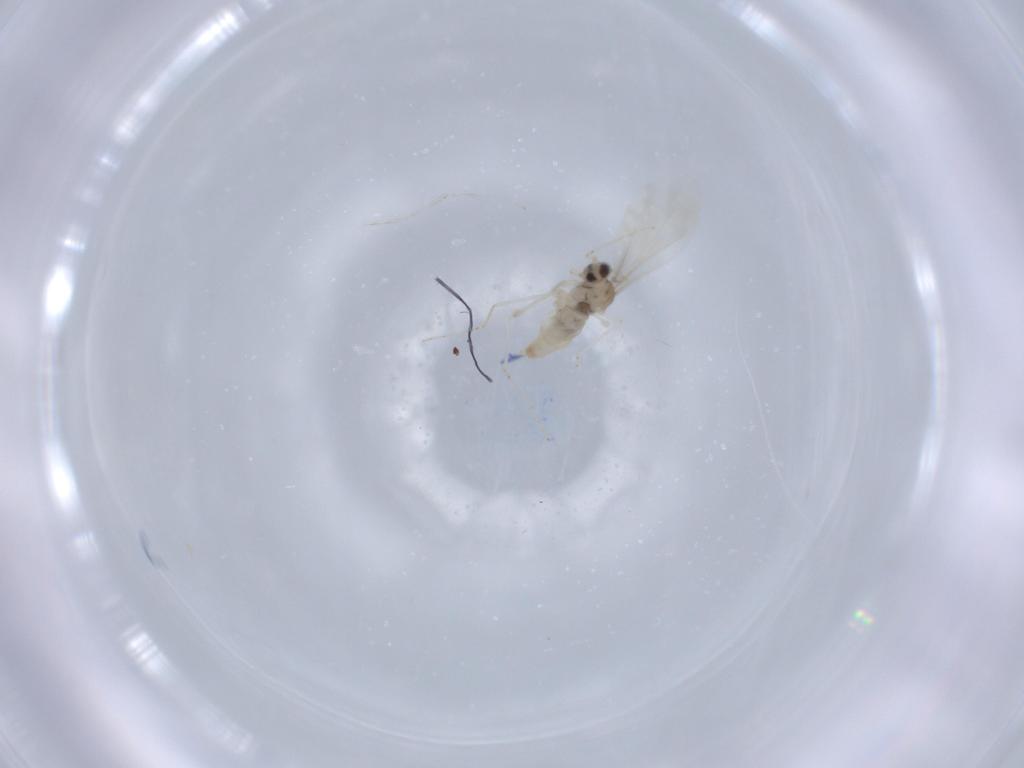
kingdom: Animalia
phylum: Arthropoda
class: Insecta
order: Diptera
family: Cecidomyiidae
